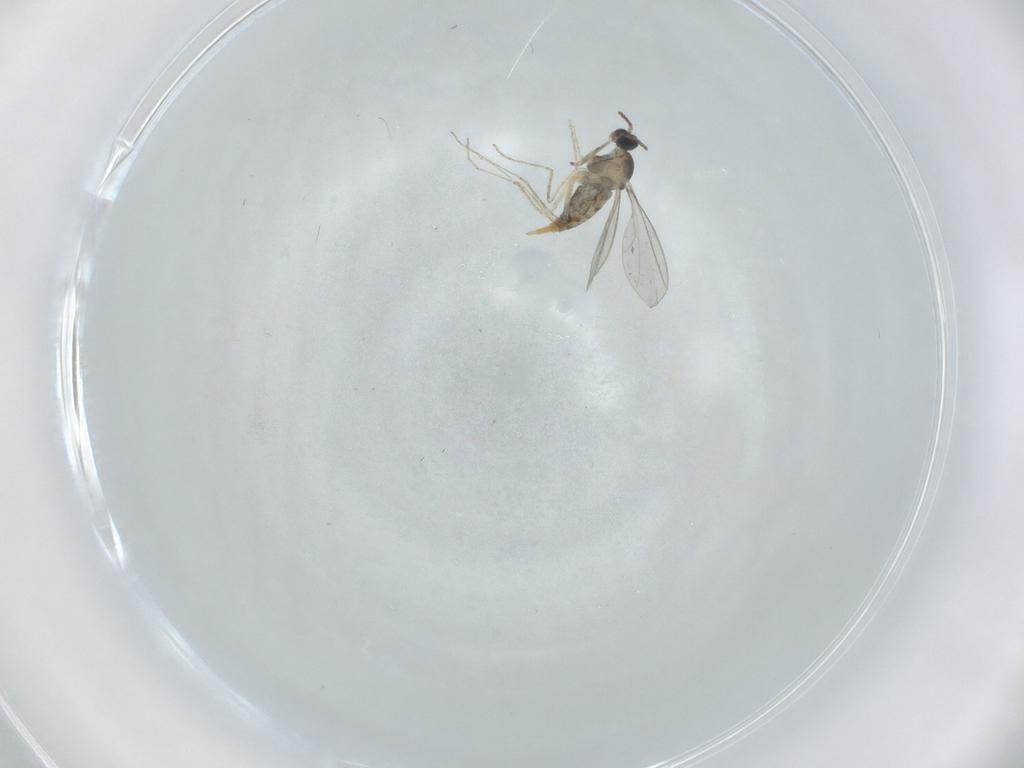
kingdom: Animalia
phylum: Arthropoda
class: Insecta
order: Diptera
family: Cecidomyiidae
